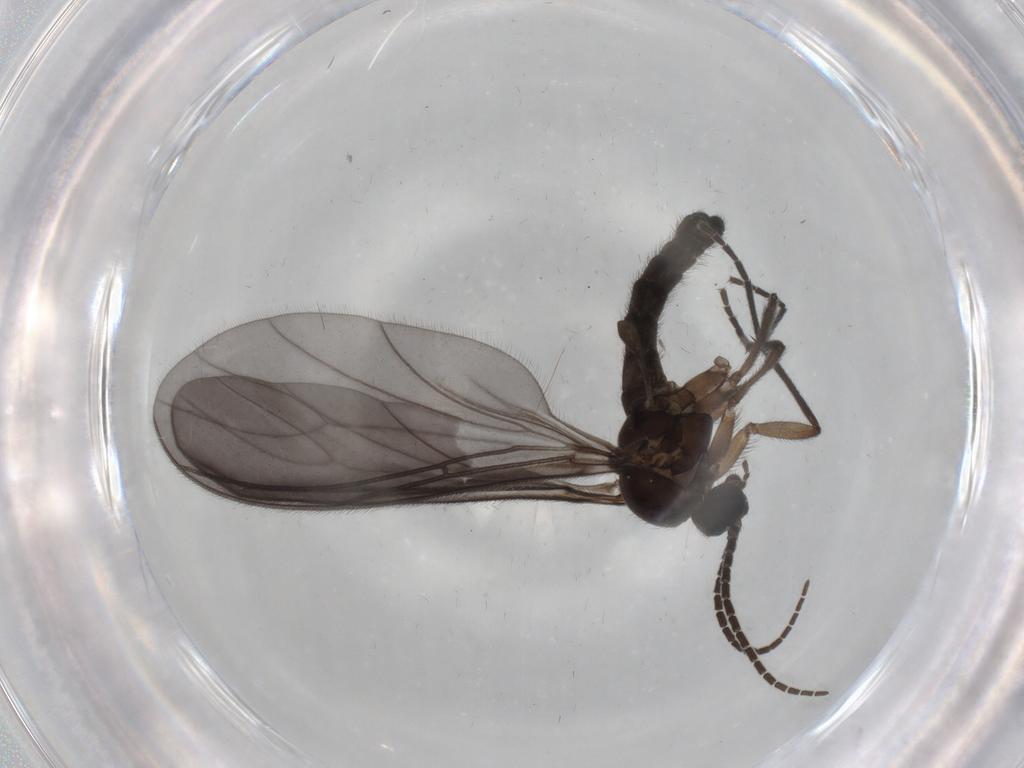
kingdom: Animalia
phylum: Arthropoda
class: Insecta
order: Diptera
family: Sciaridae
